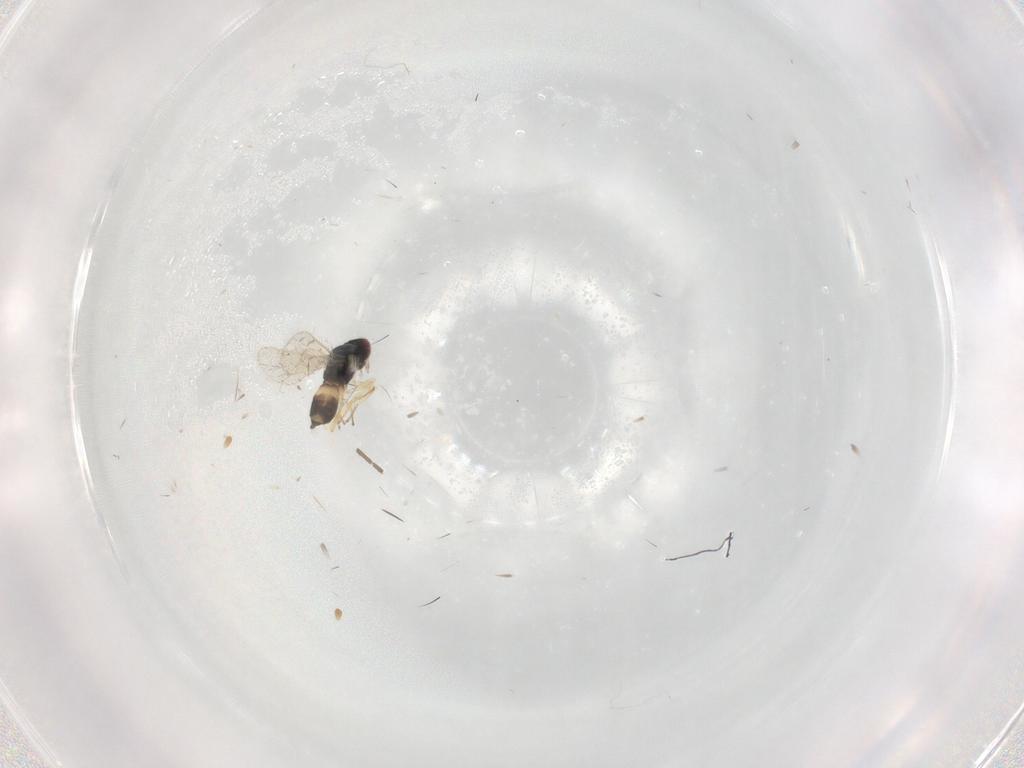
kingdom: Animalia
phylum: Arthropoda
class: Insecta
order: Hymenoptera
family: Eulophidae
